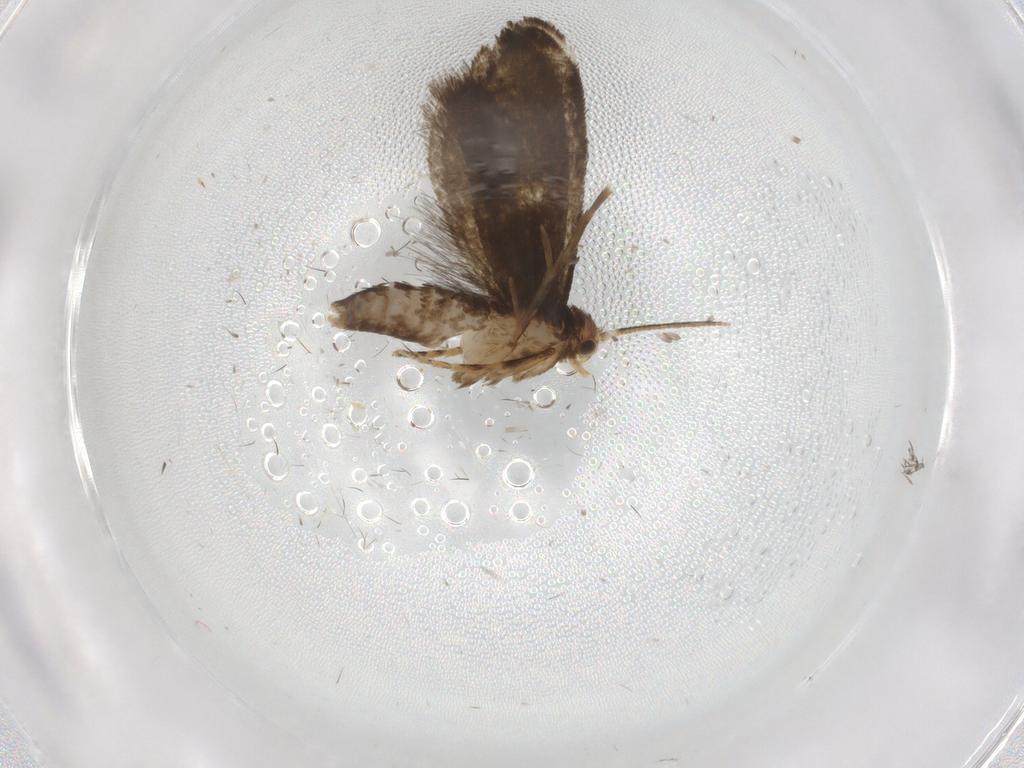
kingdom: Animalia
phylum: Arthropoda
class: Insecta
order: Lepidoptera
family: Tineidae
